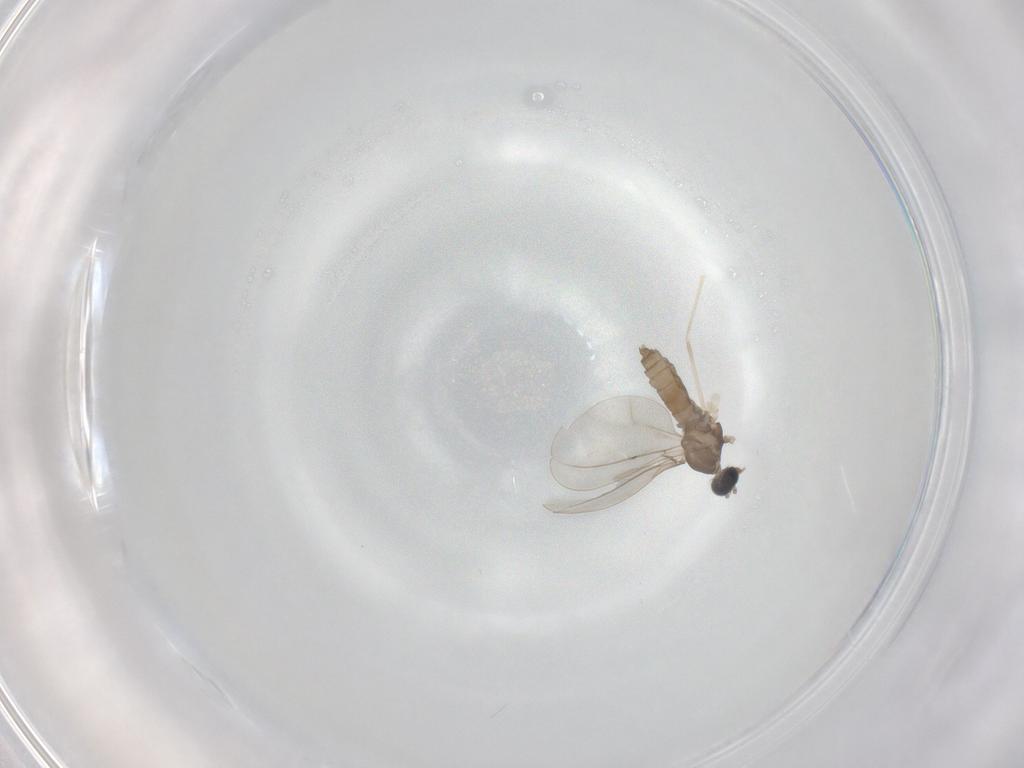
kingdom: Animalia
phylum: Arthropoda
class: Insecta
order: Diptera
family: Cecidomyiidae
